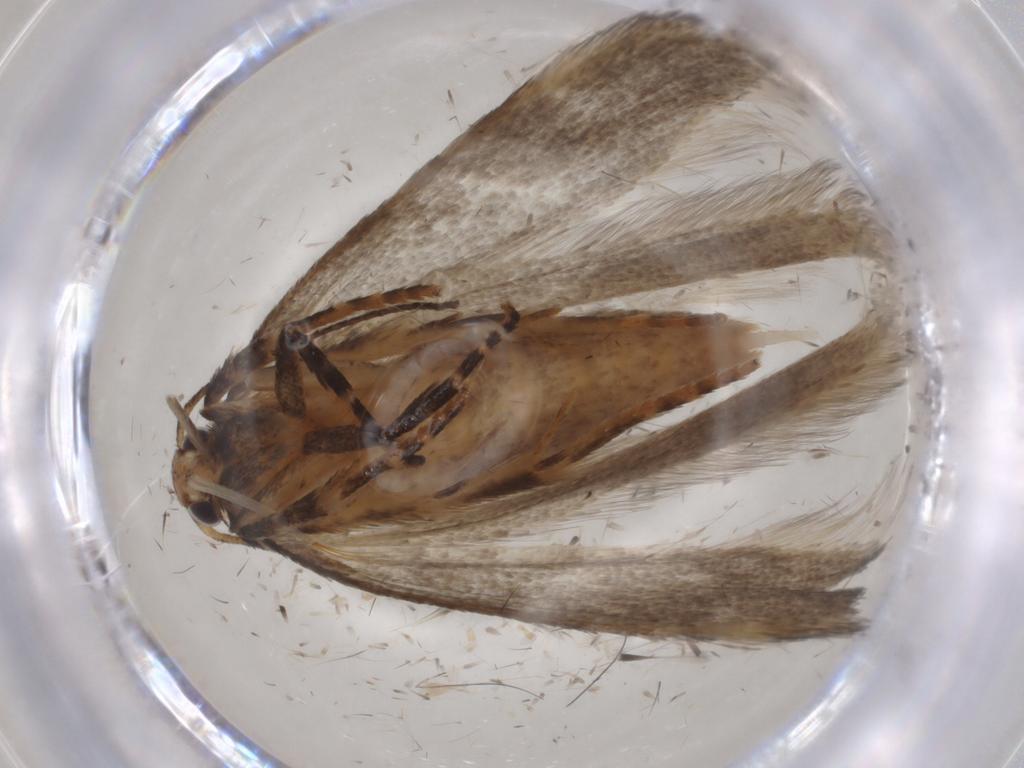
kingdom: Animalia
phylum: Arthropoda
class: Insecta
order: Lepidoptera
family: Gelechiidae
